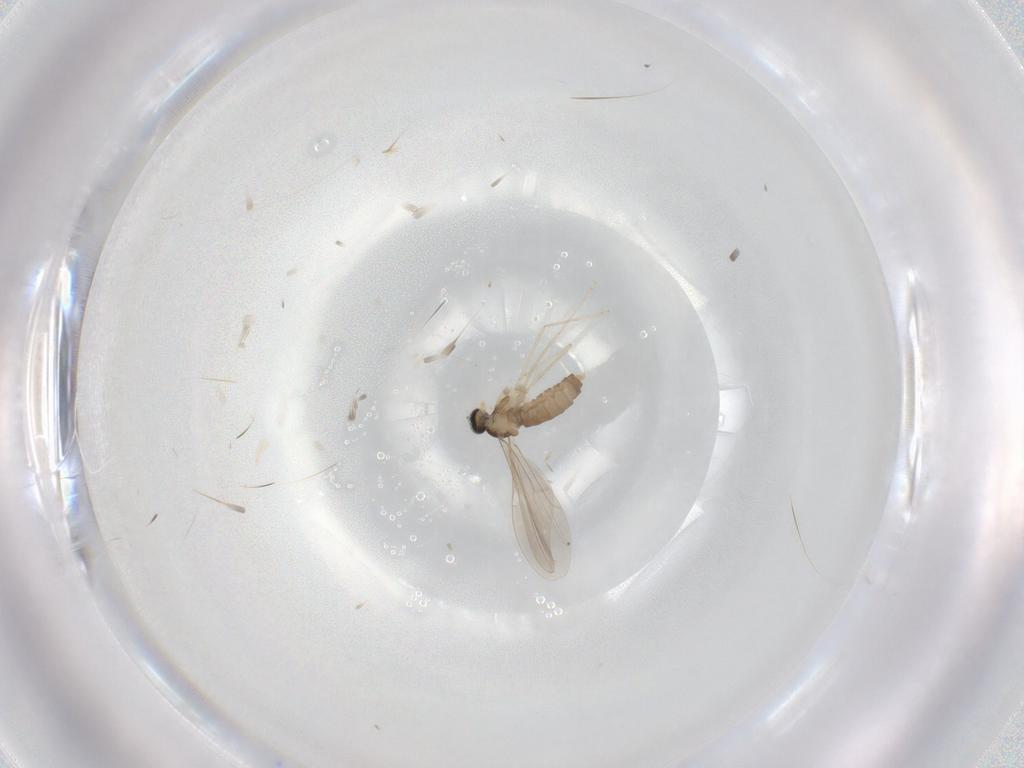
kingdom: Animalia
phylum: Arthropoda
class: Insecta
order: Diptera
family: Cecidomyiidae
